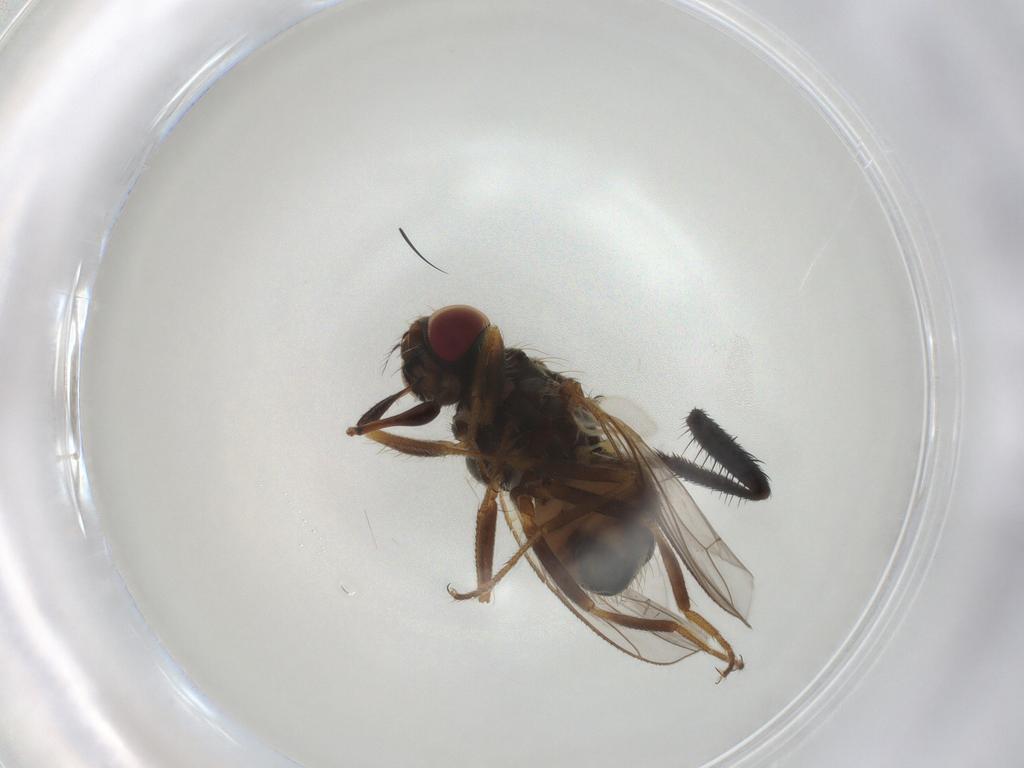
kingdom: Animalia
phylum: Arthropoda
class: Insecta
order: Diptera
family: Muscidae
